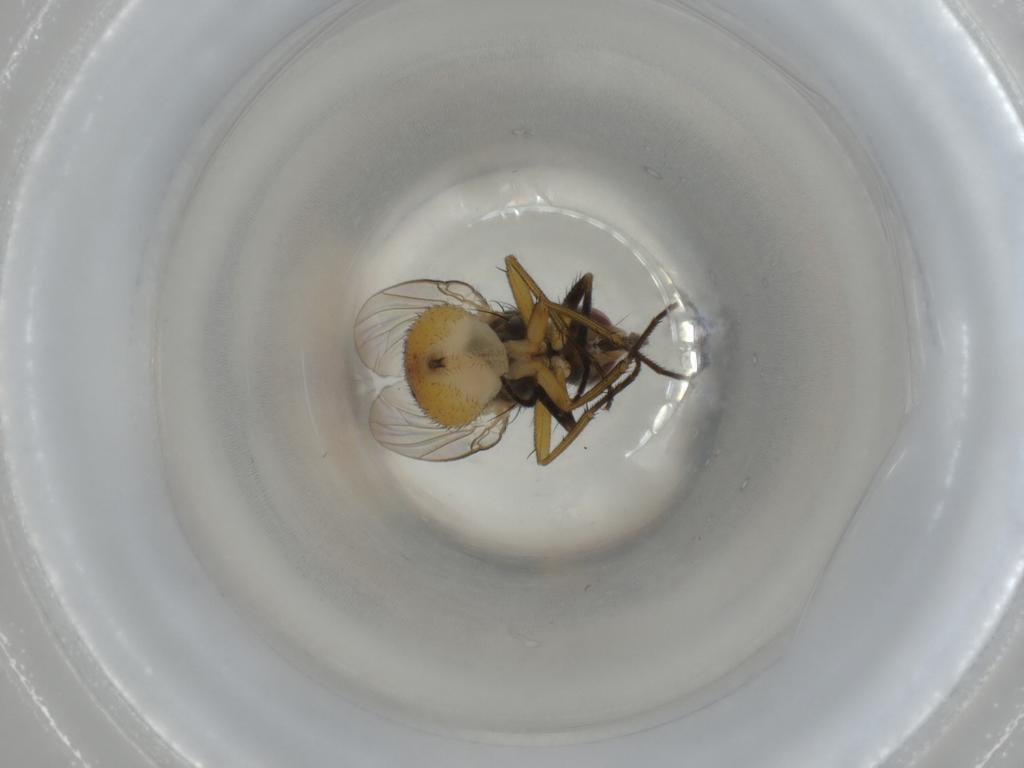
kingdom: Animalia
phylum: Arthropoda
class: Insecta
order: Diptera
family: Muscidae
